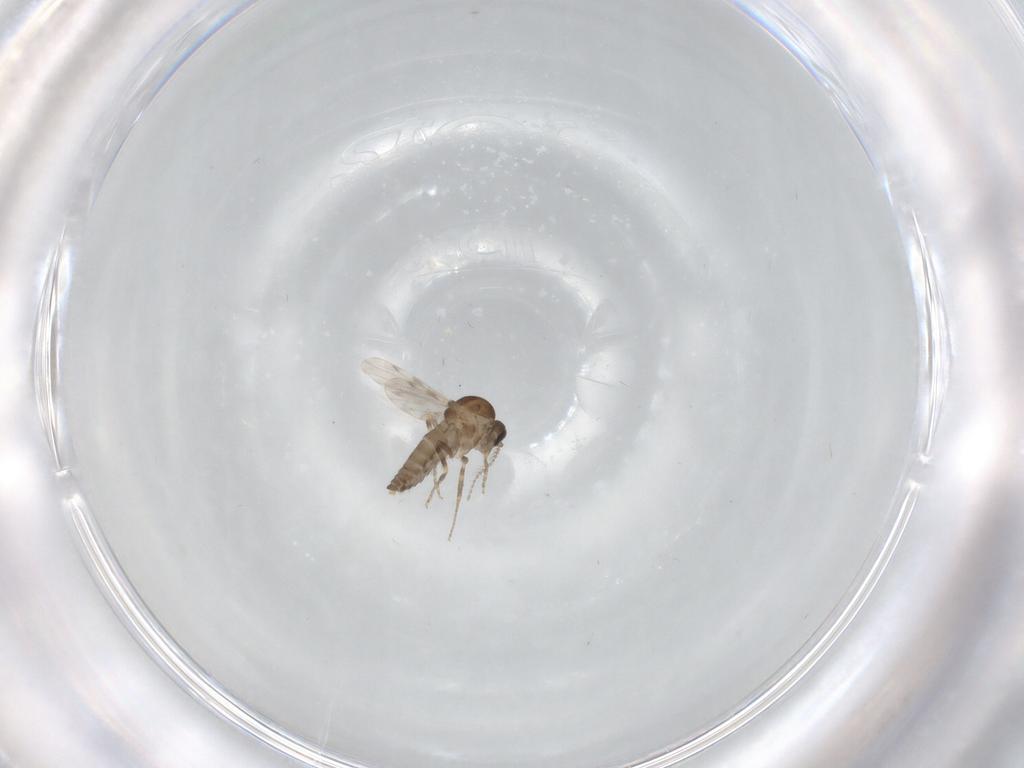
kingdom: Animalia
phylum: Arthropoda
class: Insecta
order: Diptera
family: Ceratopogonidae
